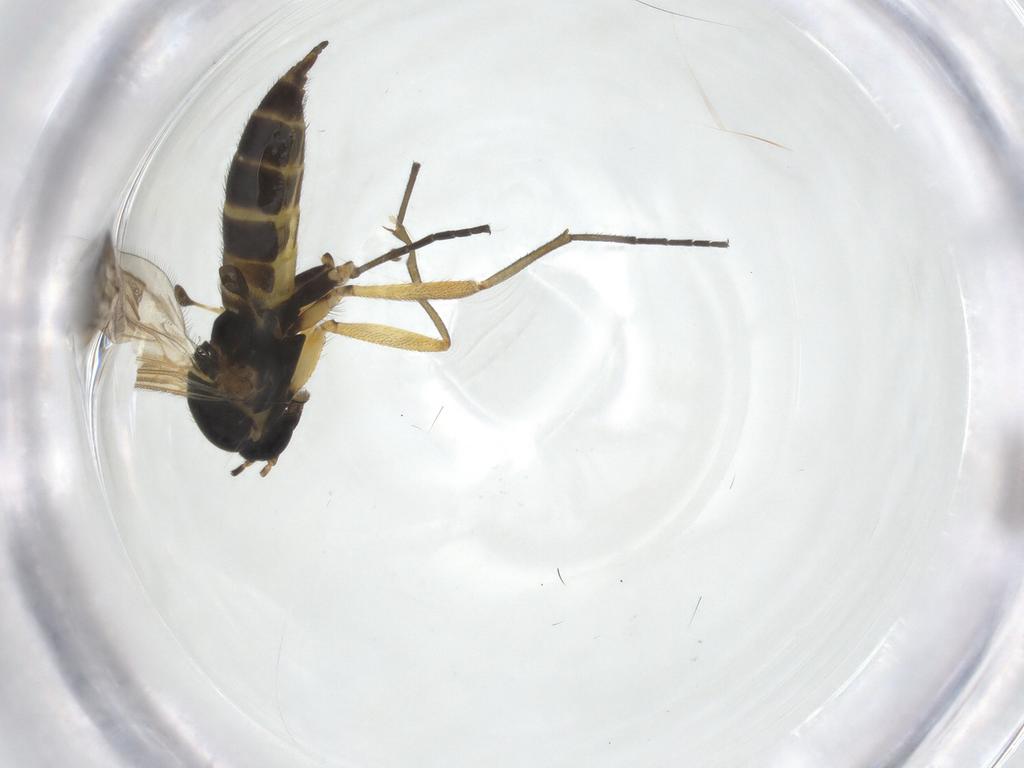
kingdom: Animalia
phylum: Arthropoda
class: Insecta
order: Diptera
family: Sciaridae
